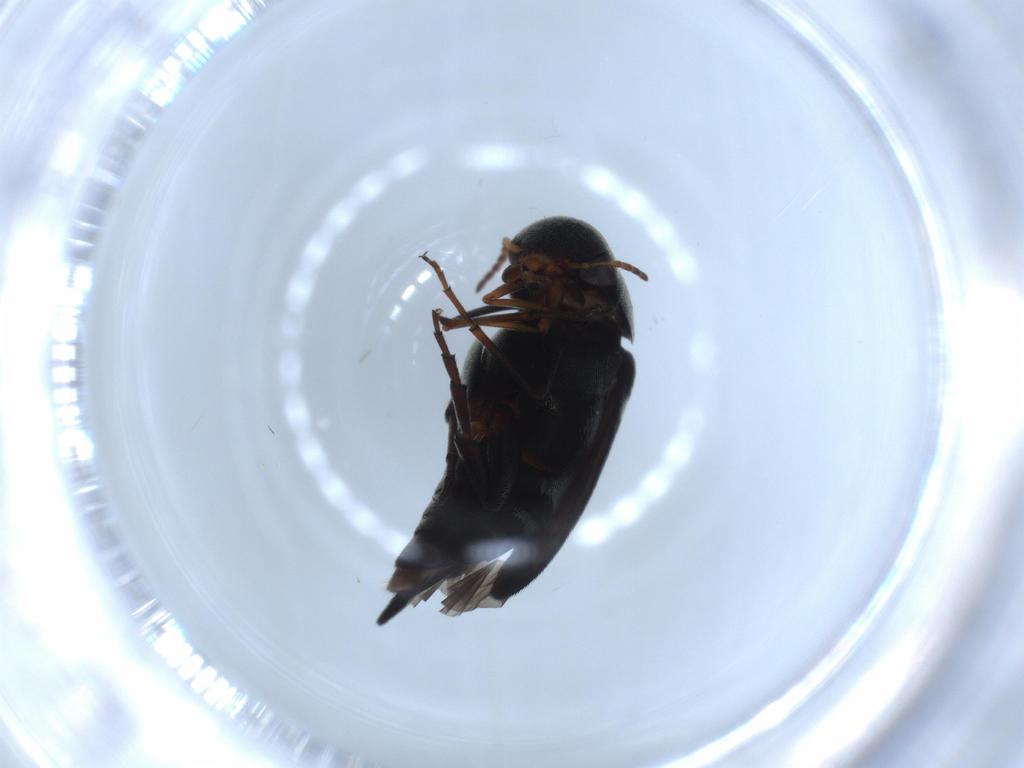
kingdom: Animalia
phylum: Arthropoda
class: Insecta
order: Coleoptera
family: Mordellidae
